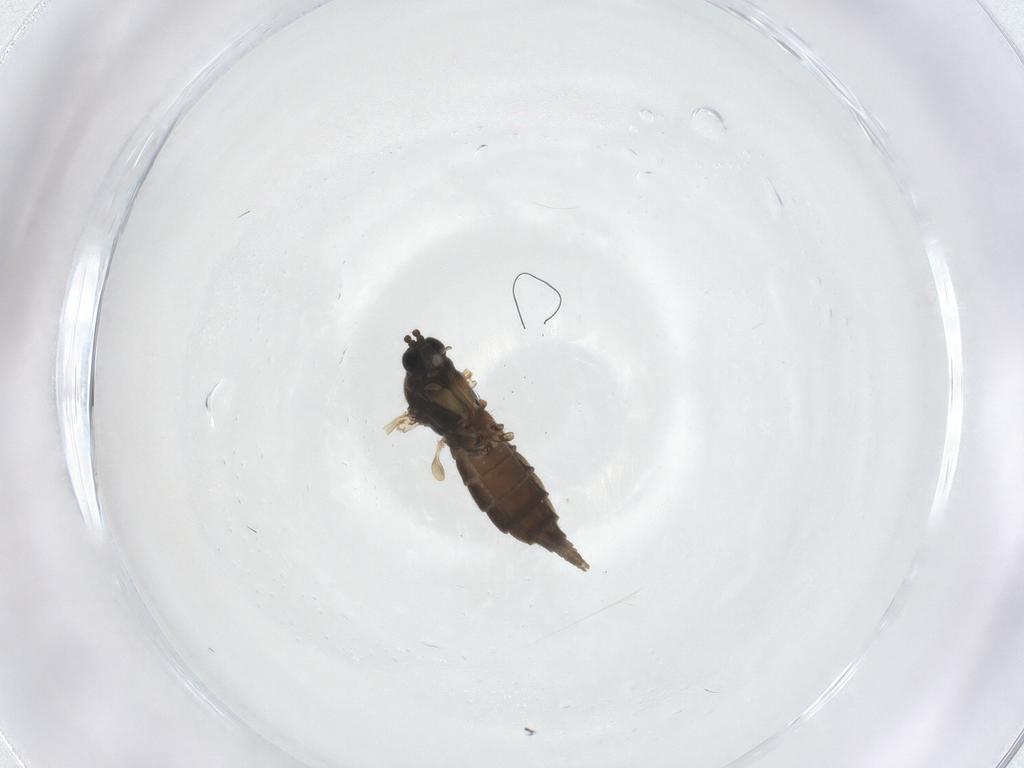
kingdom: Animalia
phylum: Arthropoda
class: Insecta
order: Diptera
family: Sciaridae
